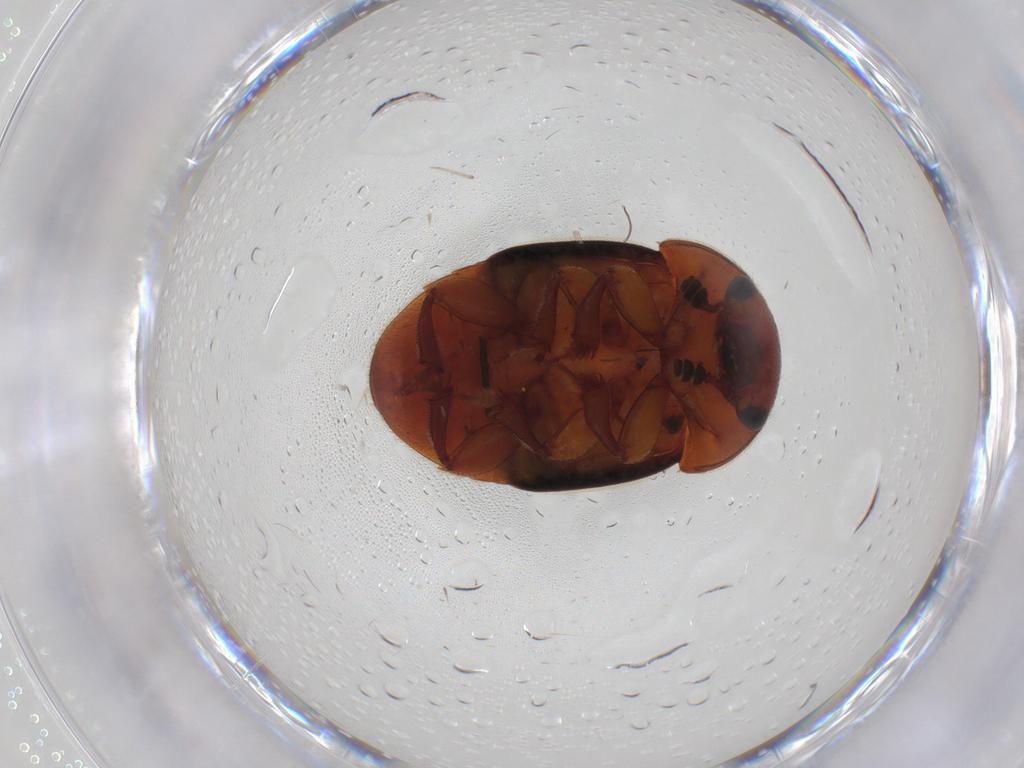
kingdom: Animalia
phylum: Arthropoda
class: Insecta
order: Coleoptera
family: Nitidulidae
